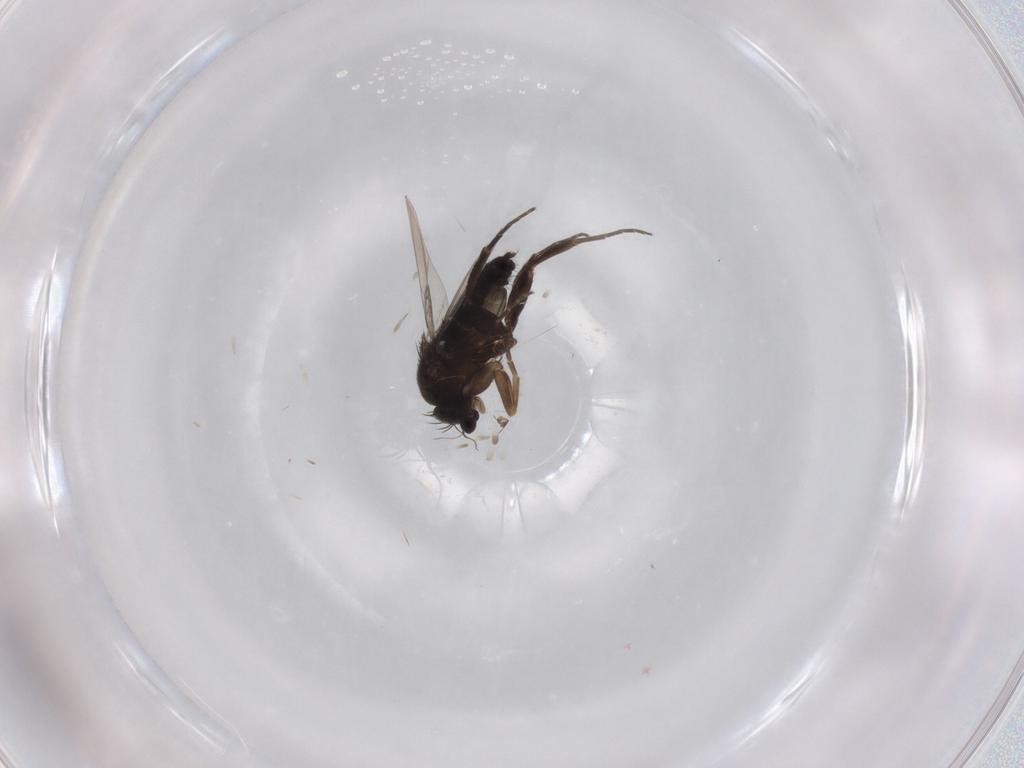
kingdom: Animalia
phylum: Arthropoda
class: Insecta
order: Diptera
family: Phoridae
